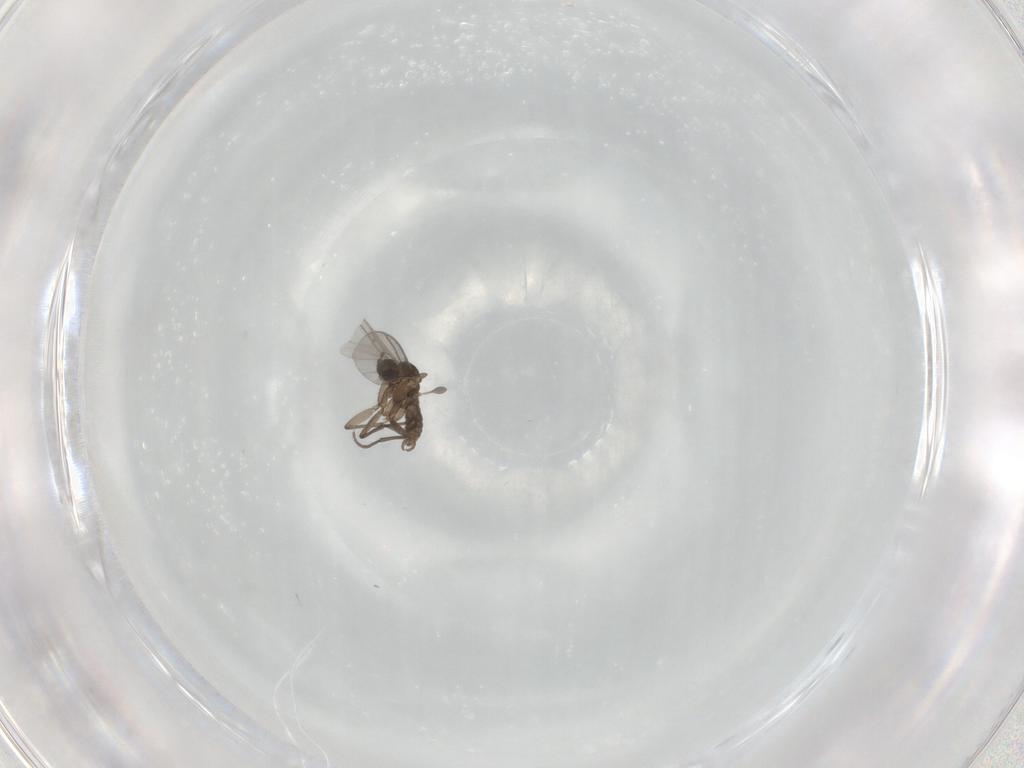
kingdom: Animalia
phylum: Arthropoda
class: Insecta
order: Diptera
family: Sciaridae
